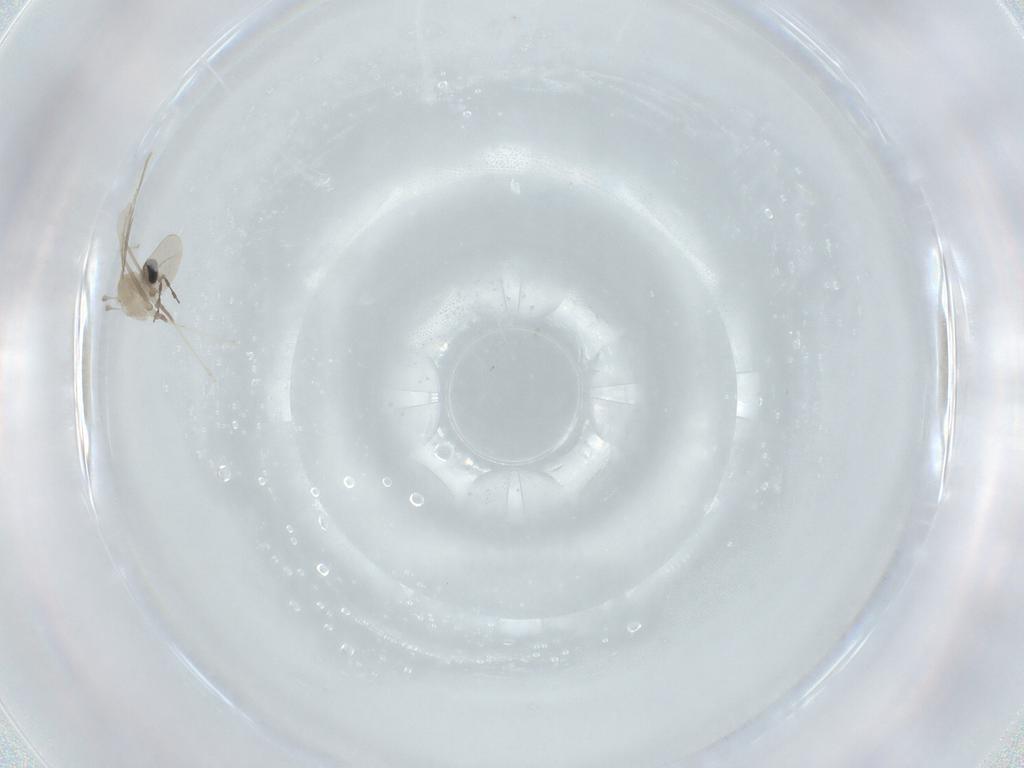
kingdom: Animalia
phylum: Arthropoda
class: Insecta
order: Diptera
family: Cecidomyiidae
